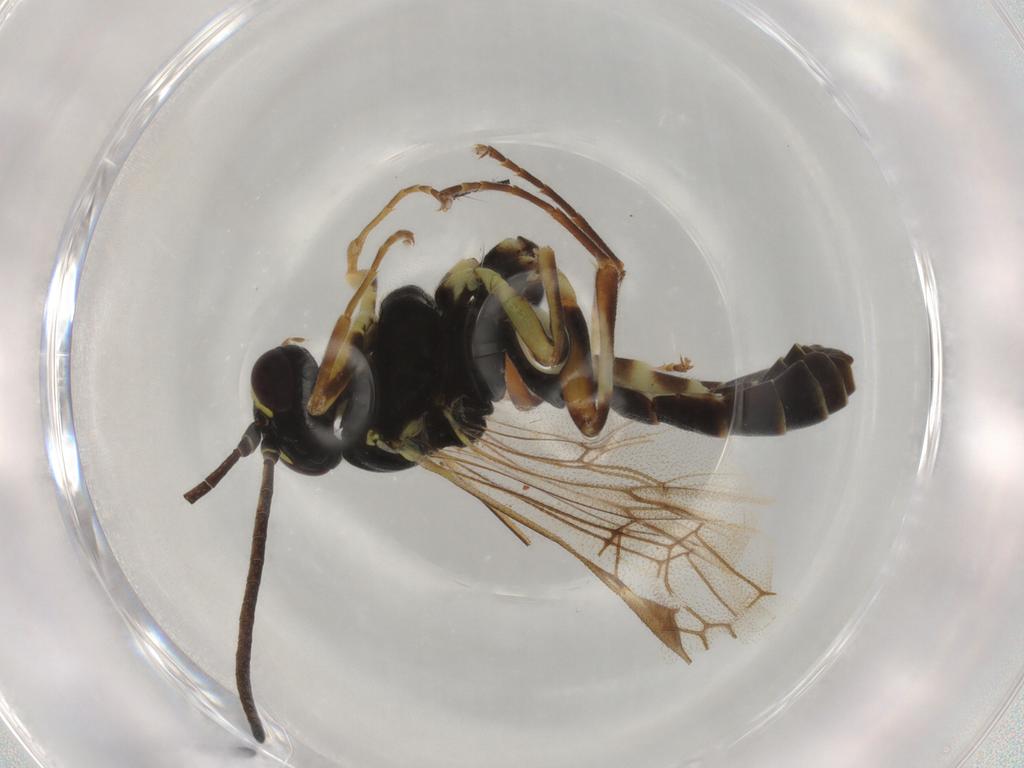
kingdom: Animalia
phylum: Arthropoda
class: Insecta
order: Hymenoptera
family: Ichneumonidae
